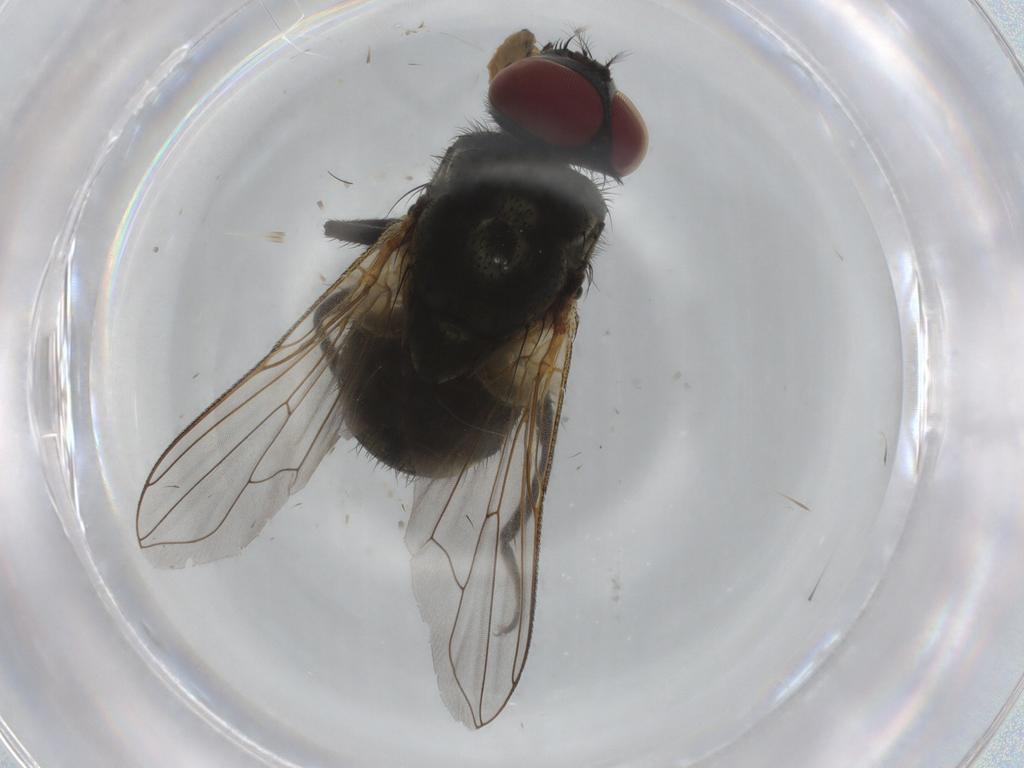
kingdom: Animalia
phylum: Arthropoda
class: Insecta
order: Diptera
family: Muscidae
